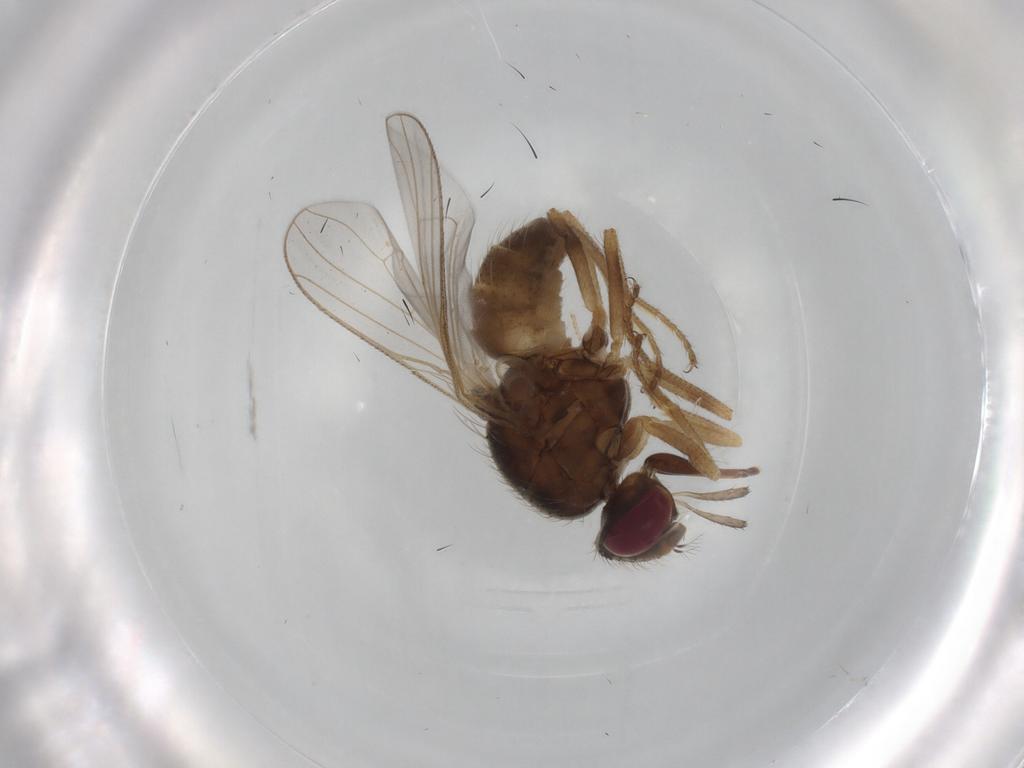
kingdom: Animalia
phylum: Arthropoda
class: Insecta
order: Diptera
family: Muscidae
